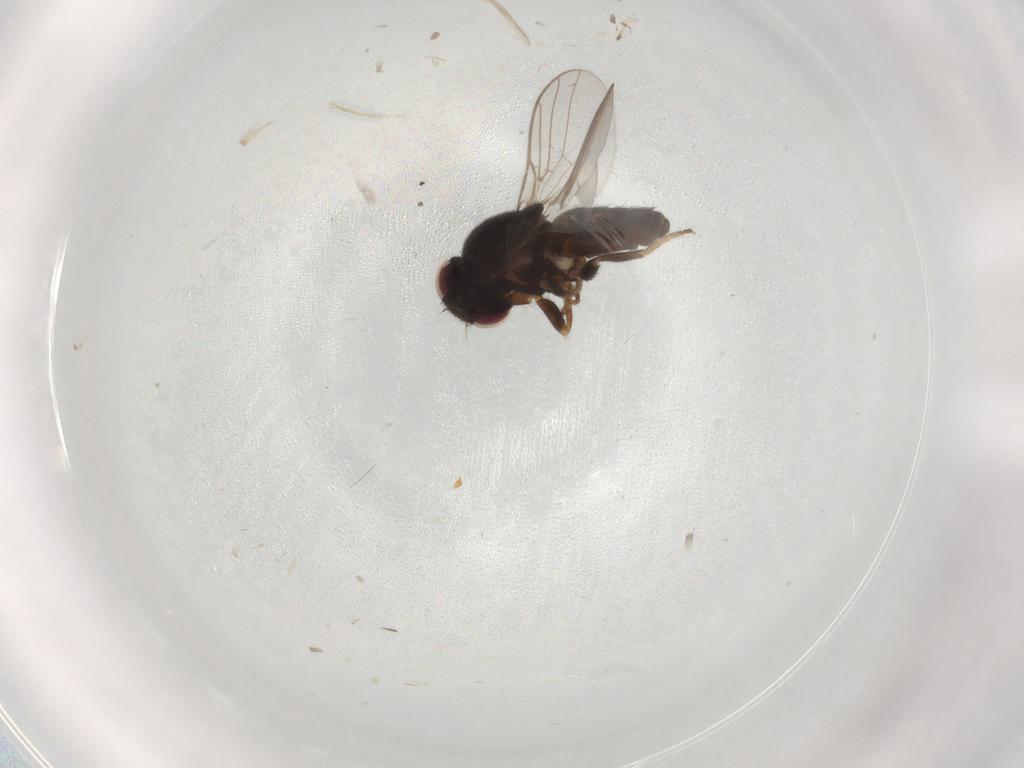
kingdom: Animalia
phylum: Arthropoda
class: Insecta
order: Diptera
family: Chloropidae
